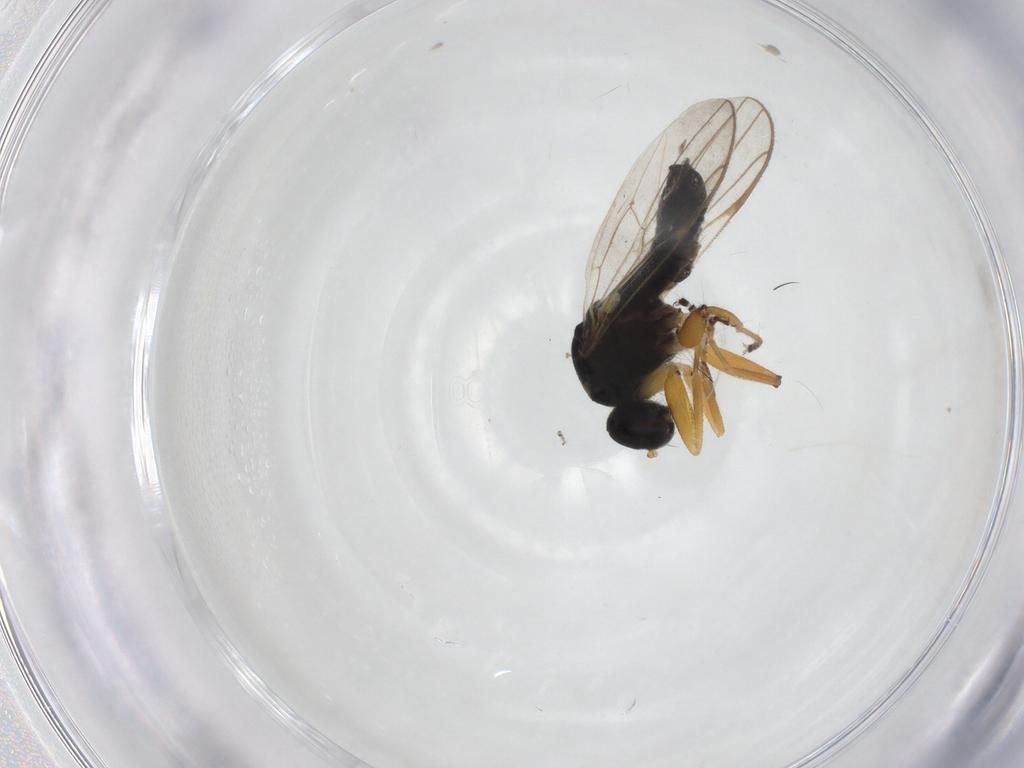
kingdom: Animalia
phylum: Arthropoda
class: Insecta
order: Diptera
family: Hybotidae
